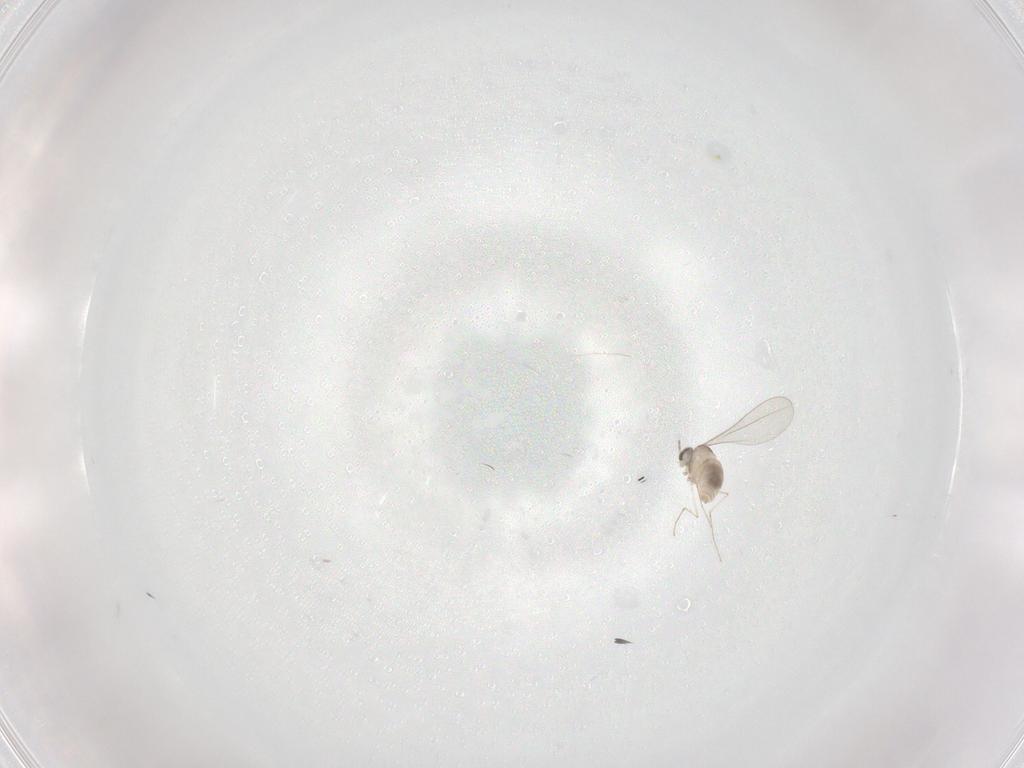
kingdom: Animalia
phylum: Arthropoda
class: Insecta
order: Diptera
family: Cecidomyiidae
